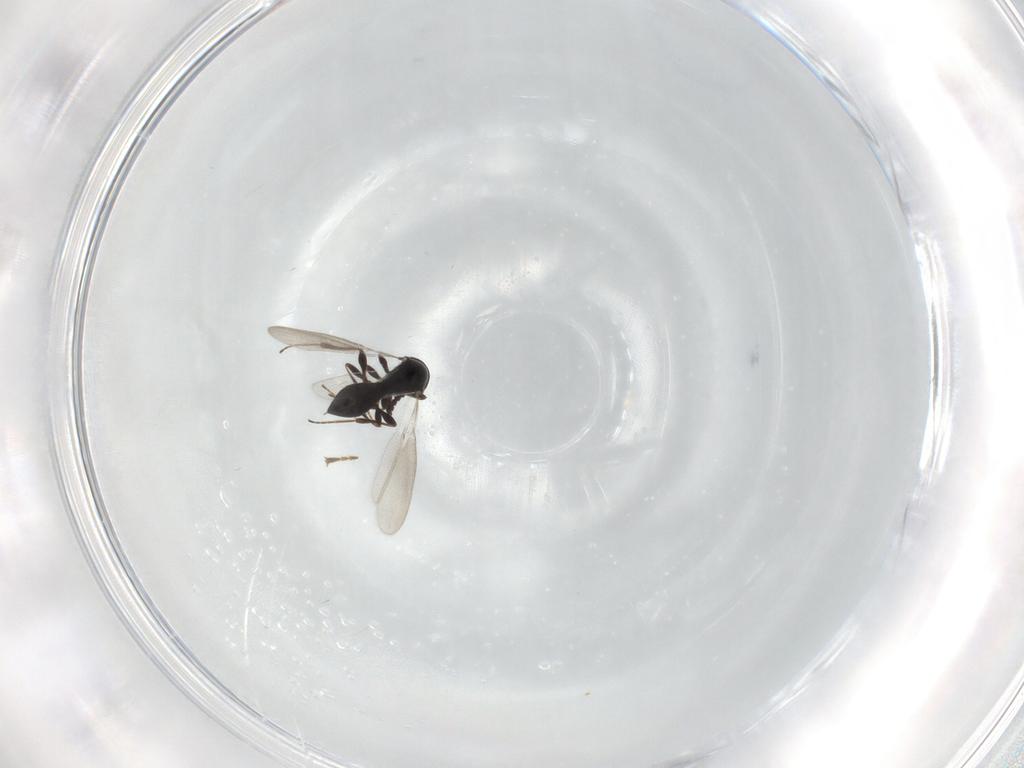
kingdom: Animalia
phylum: Arthropoda
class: Insecta
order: Hymenoptera
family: Platygastridae
